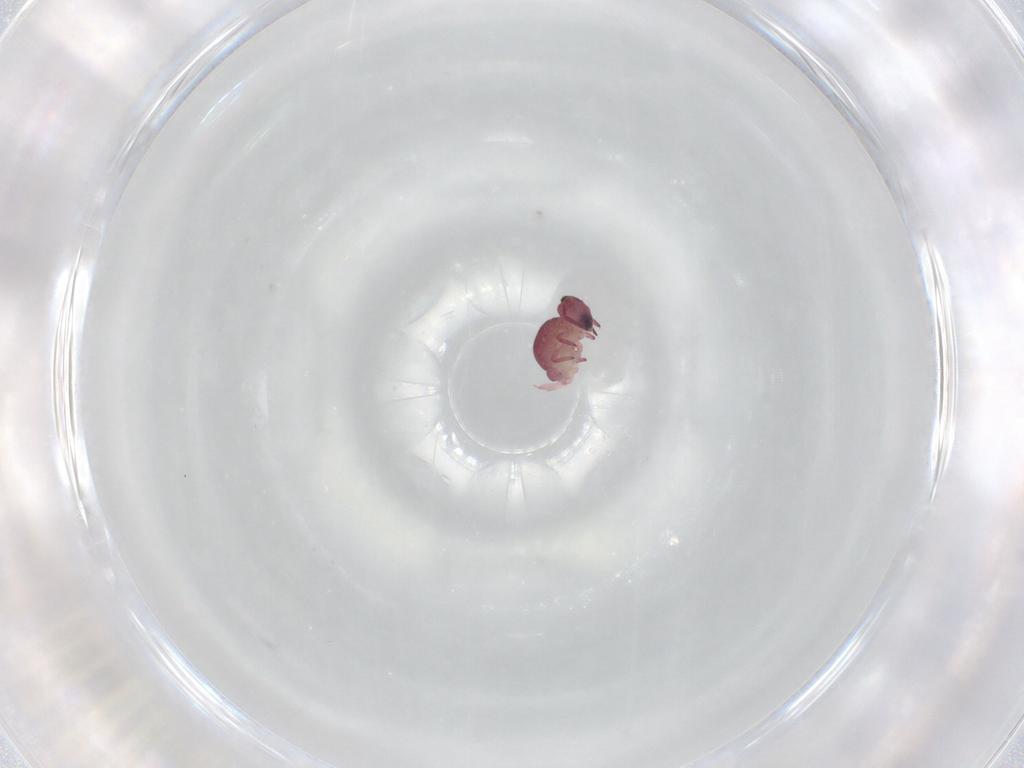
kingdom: Animalia
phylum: Arthropoda
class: Collembola
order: Symphypleona
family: Sminthurididae
